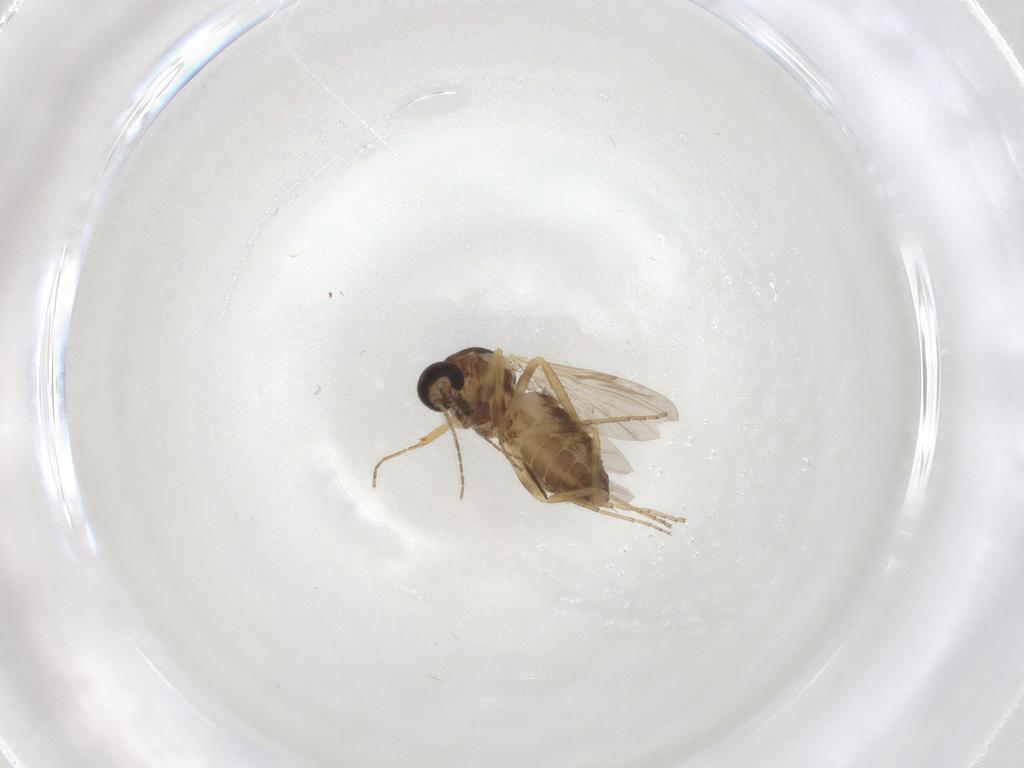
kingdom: Animalia
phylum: Arthropoda
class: Insecta
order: Diptera
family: Ceratopogonidae
